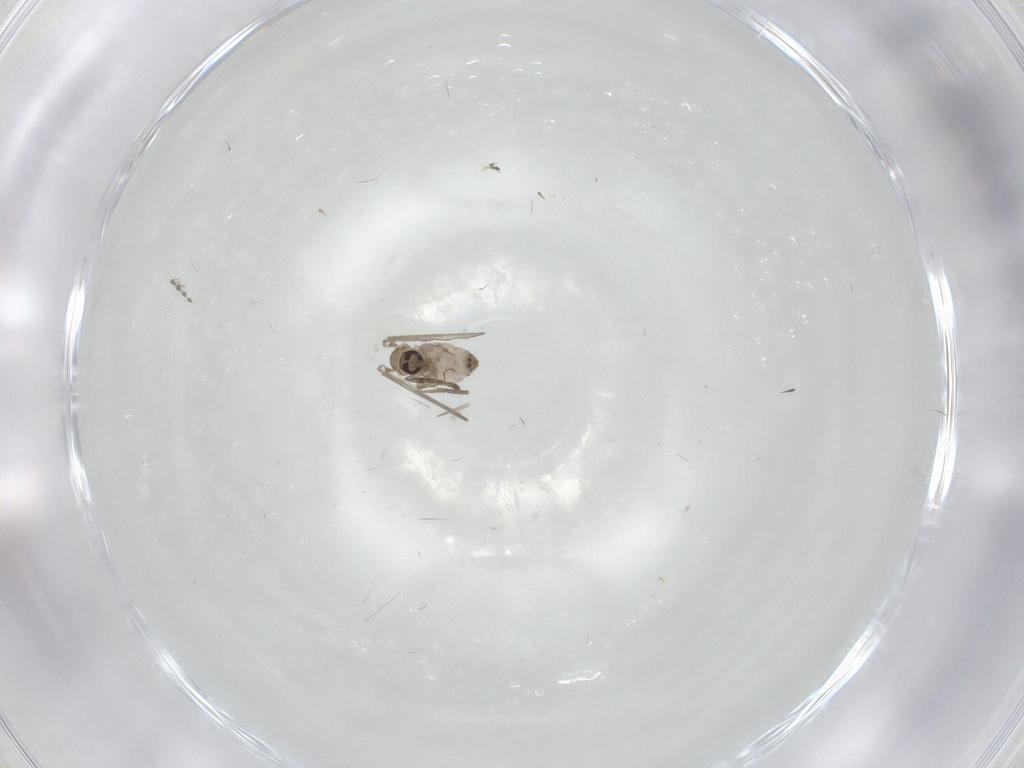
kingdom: Animalia
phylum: Arthropoda
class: Insecta
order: Diptera
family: Psychodidae
